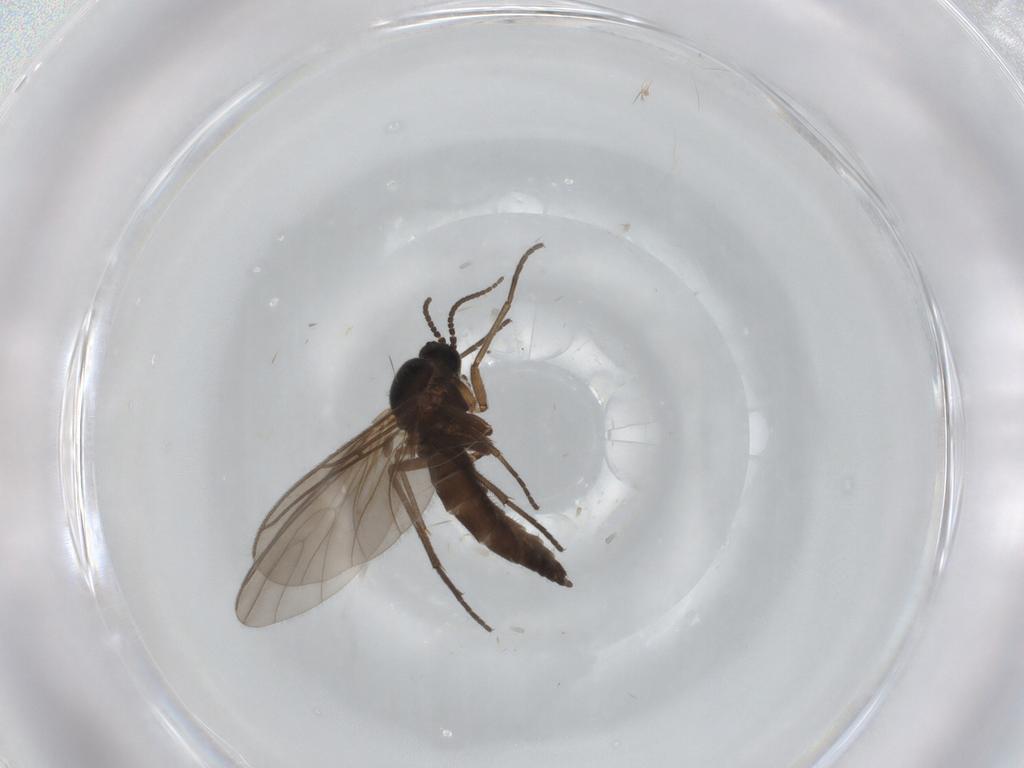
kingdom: Animalia
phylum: Arthropoda
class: Insecta
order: Diptera
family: Sciaridae
